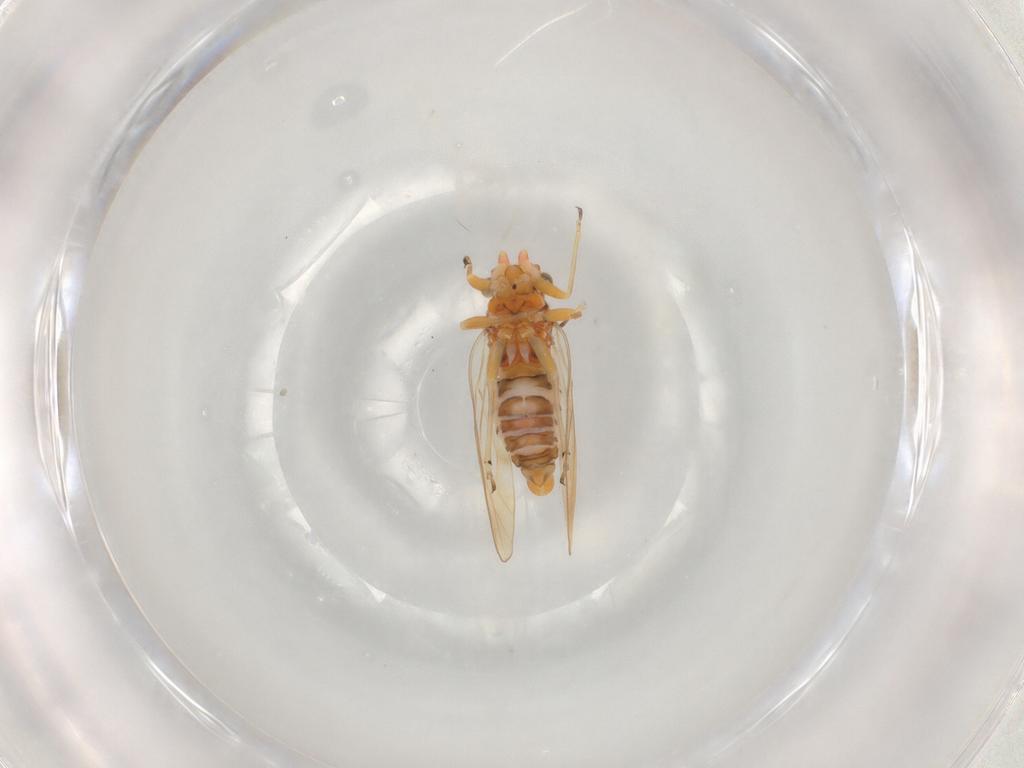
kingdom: Animalia
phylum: Arthropoda
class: Insecta
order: Hemiptera
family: Psyllidae
